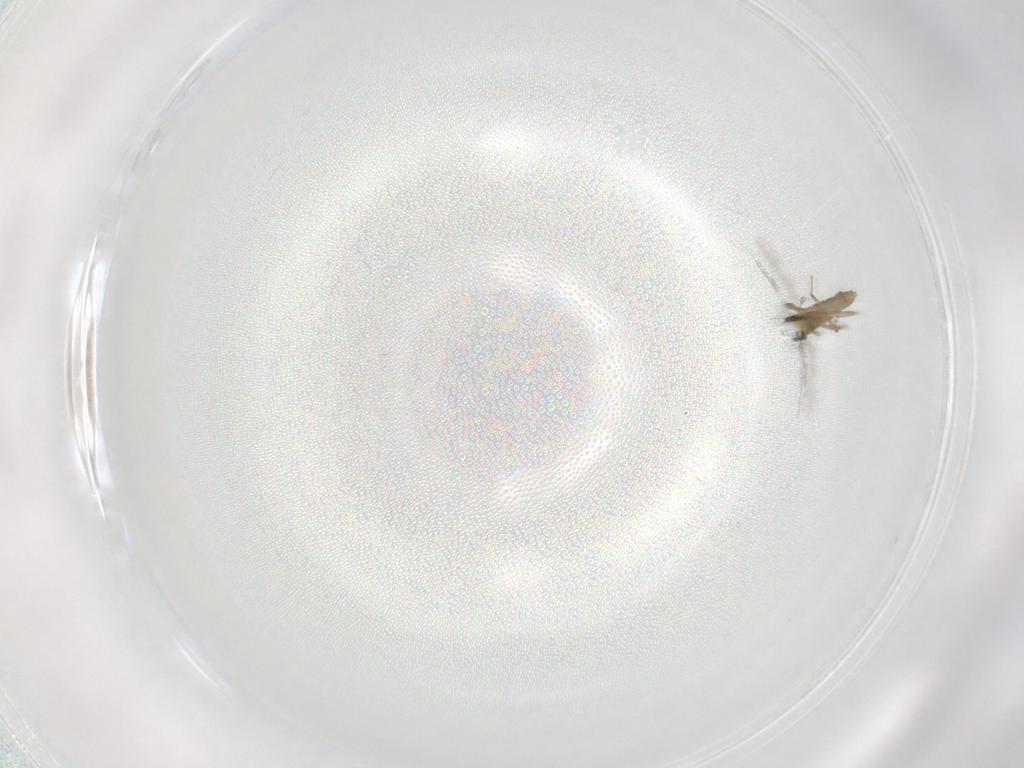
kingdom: Animalia
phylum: Arthropoda
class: Insecta
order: Diptera
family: Chironomidae
